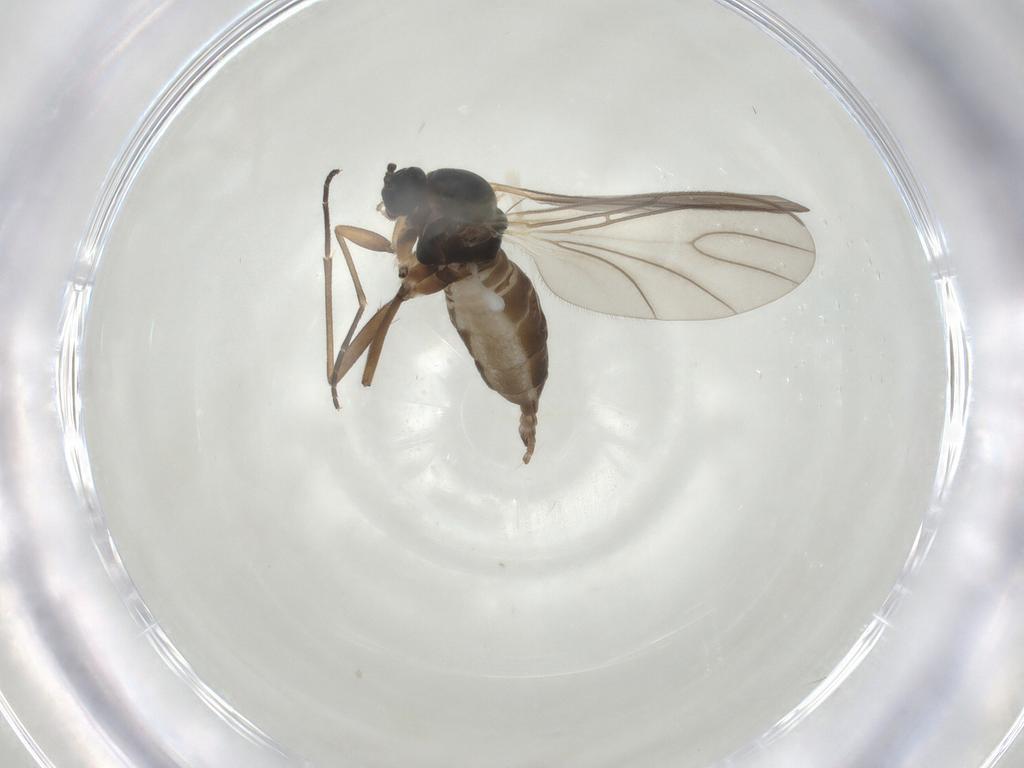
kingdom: Animalia
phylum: Arthropoda
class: Insecta
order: Diptera
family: Sciaridae
